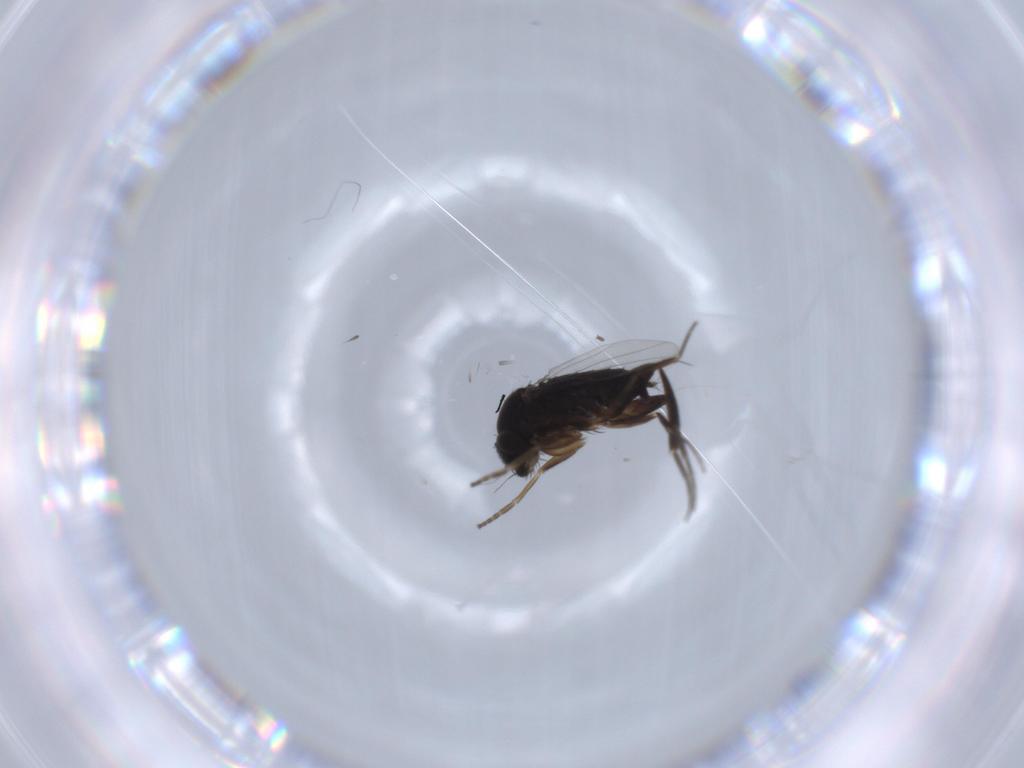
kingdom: Animalia
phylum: Arthropoda
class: Insecta
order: Diptera
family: Phoridae
